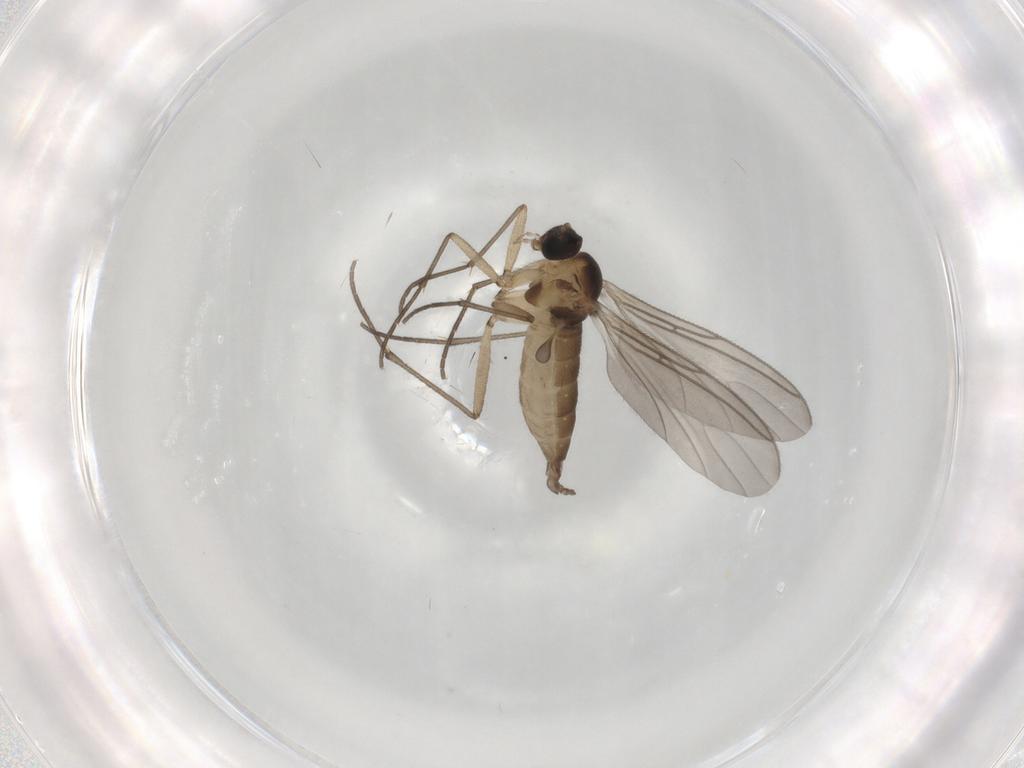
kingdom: Animalia
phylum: Arthropoda
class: Insecta
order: Diptera
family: Sciaridae
